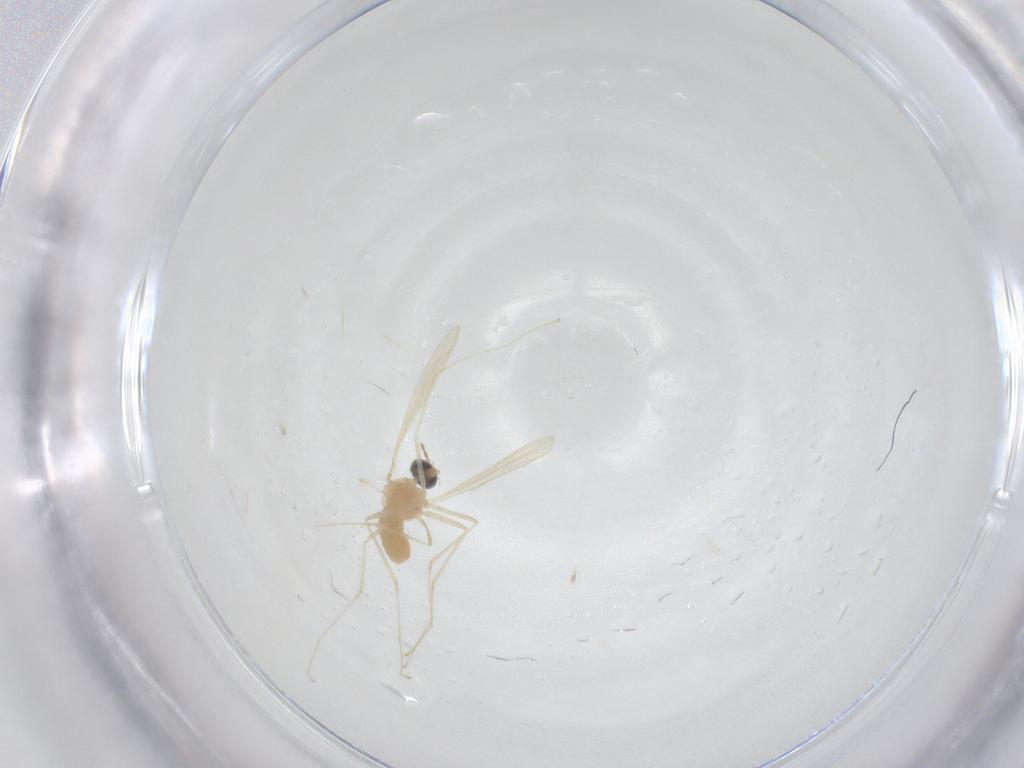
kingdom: Animalia
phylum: Arthropoda
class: Insecta
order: Diptera
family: Cecidomyiidae
